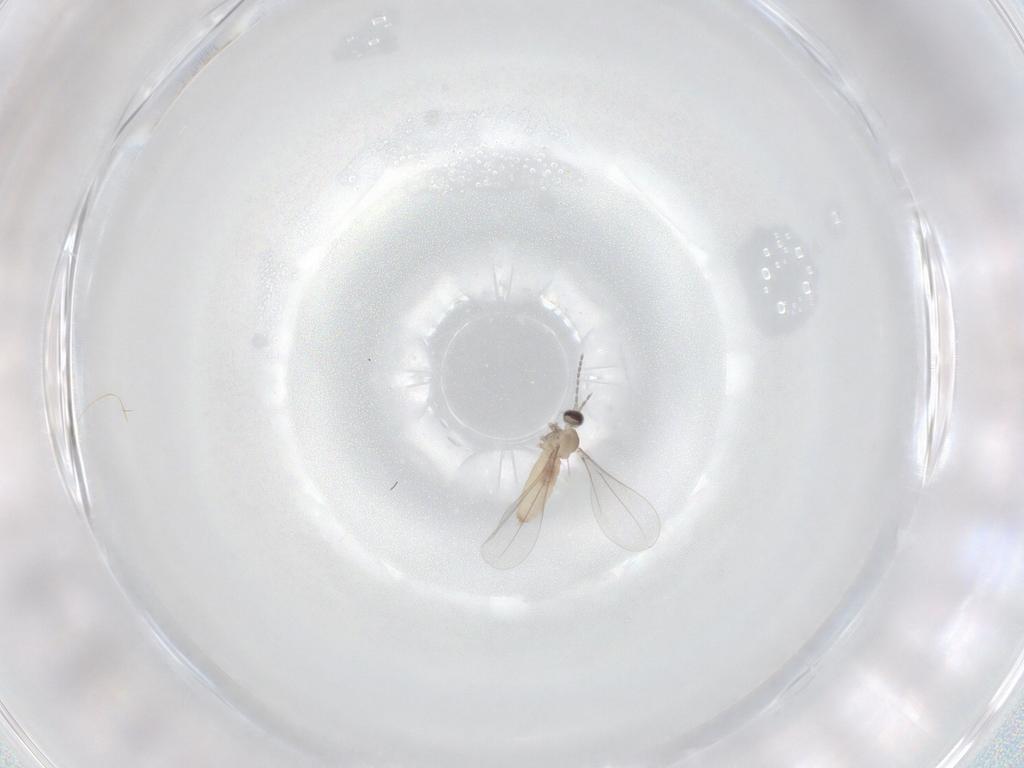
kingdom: Animalia
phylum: Arthropoda
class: Insecta
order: Diptera
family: Cecidomyiidae
